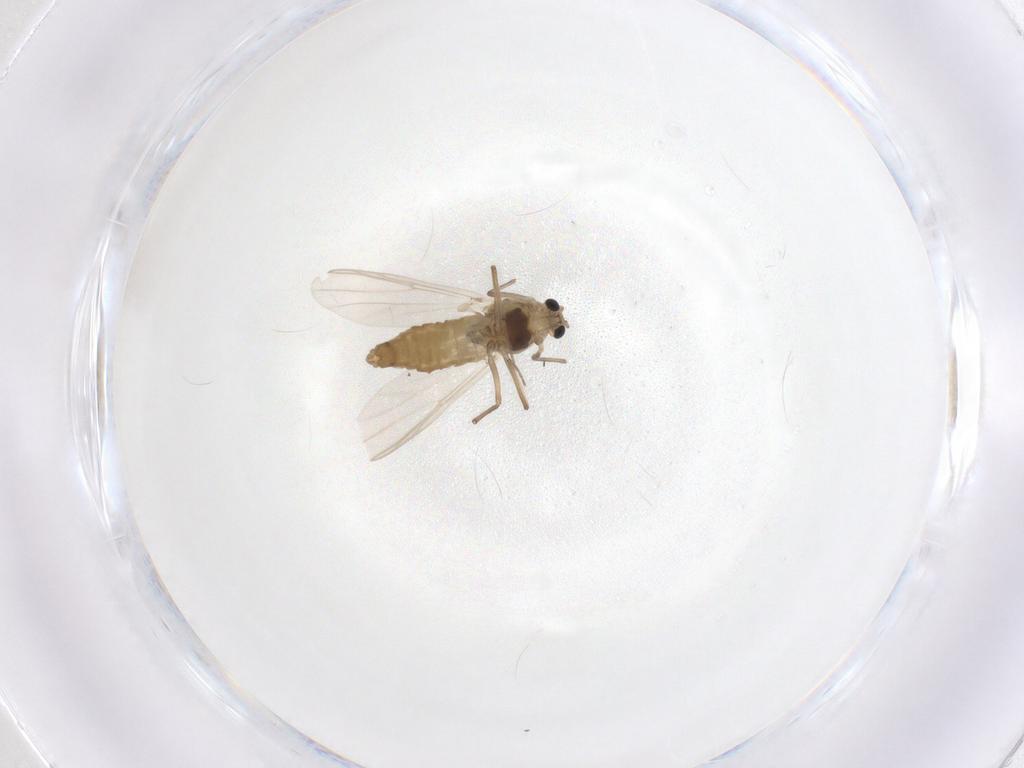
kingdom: Animalia
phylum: Arthropoda
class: Insecta
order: Diptera
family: Chironomidae
